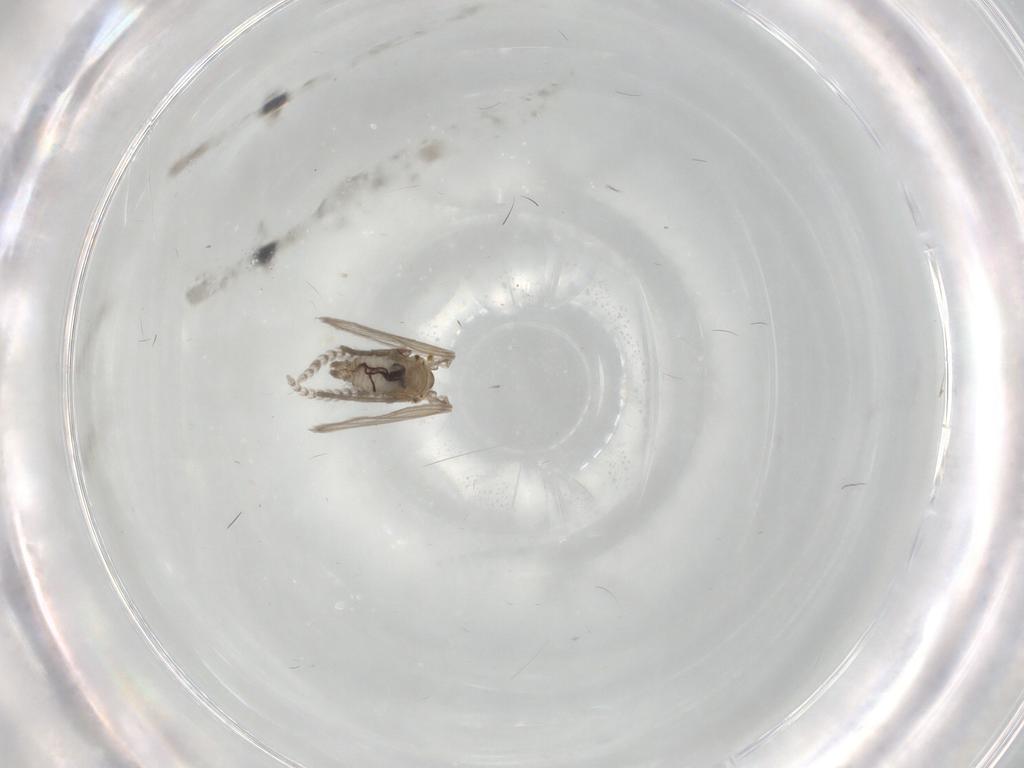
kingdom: Animalia
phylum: Arthropoda
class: Insecta
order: Diptera
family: Psychodidae
